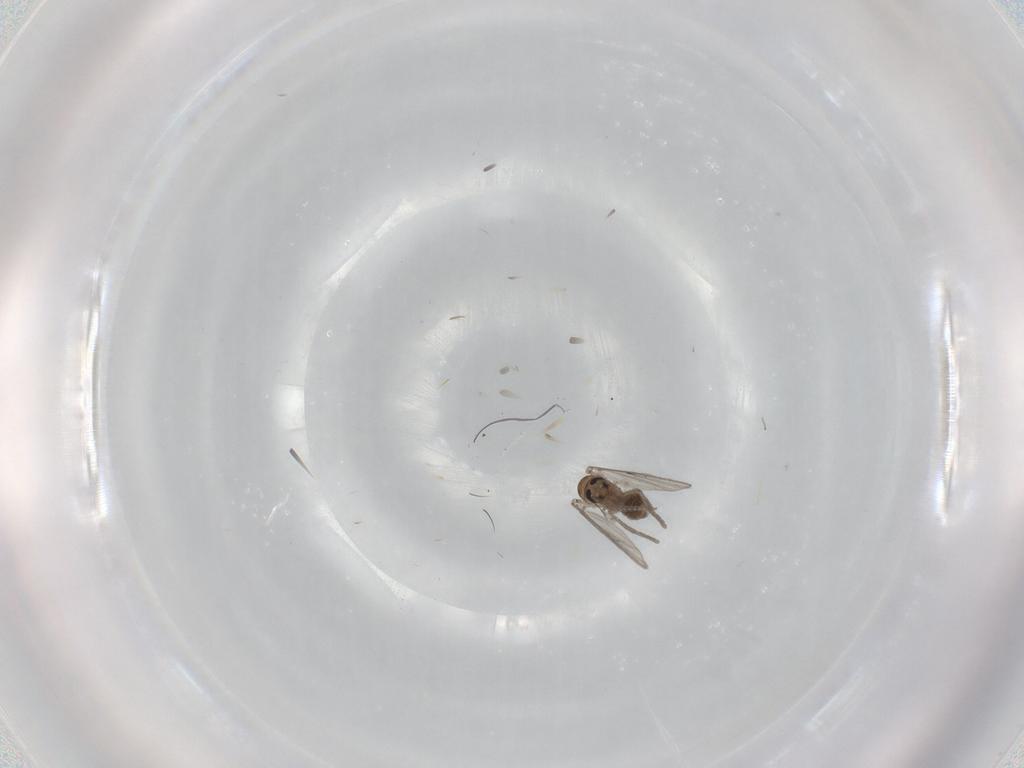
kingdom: Animalia
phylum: Arthropoda
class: Insecta
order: Diptera
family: Psychodidae
